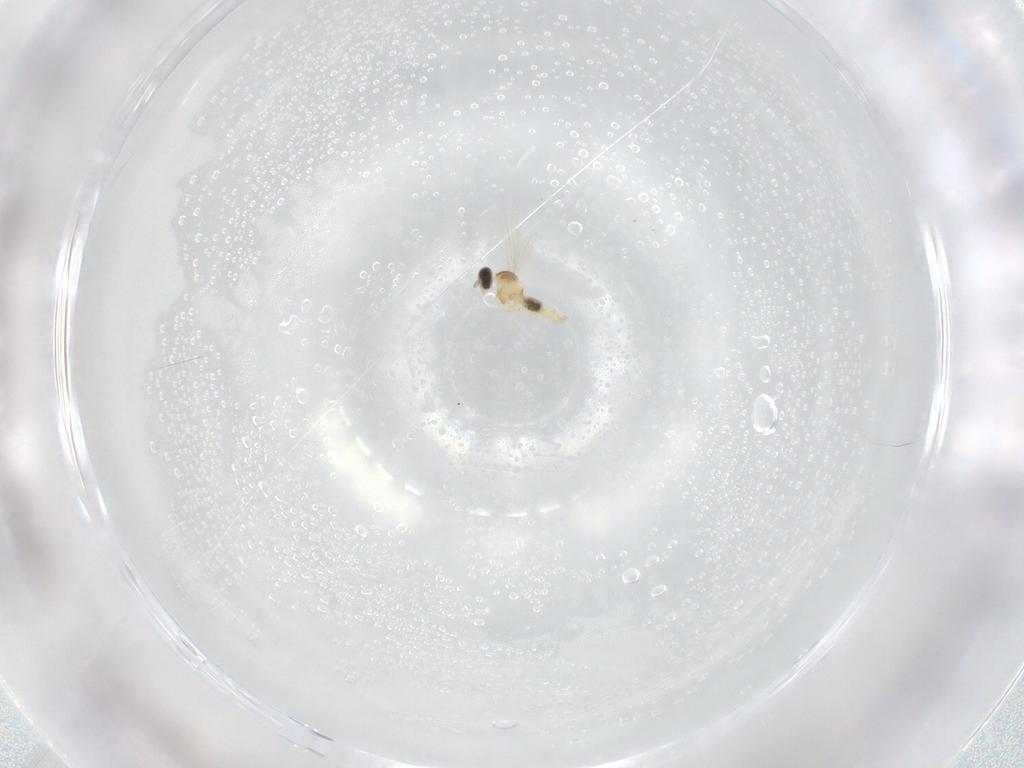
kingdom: Animalia
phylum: Arthropoda
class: Insecta
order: Diptera
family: Cecidomyiidae
